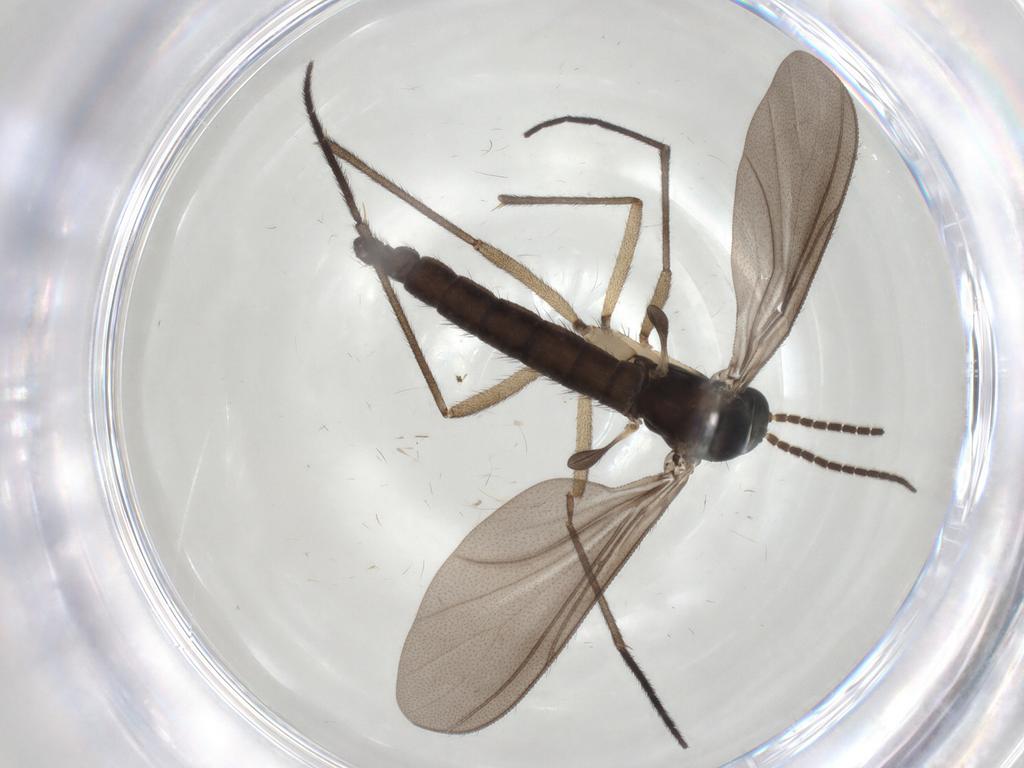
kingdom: Animalia
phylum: Arthropoda
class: Insecta
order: Diptera
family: Sciaridae
